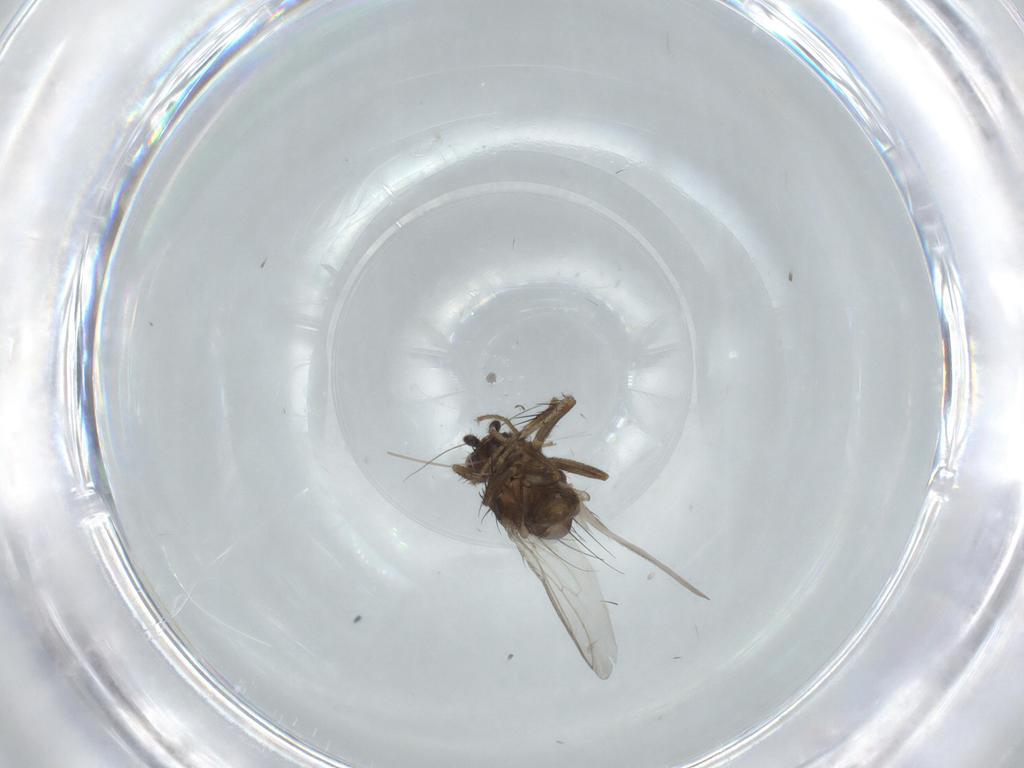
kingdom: Animalia
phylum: Arthropoda
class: Insecta
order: Diptera
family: Sphaeroceridae
